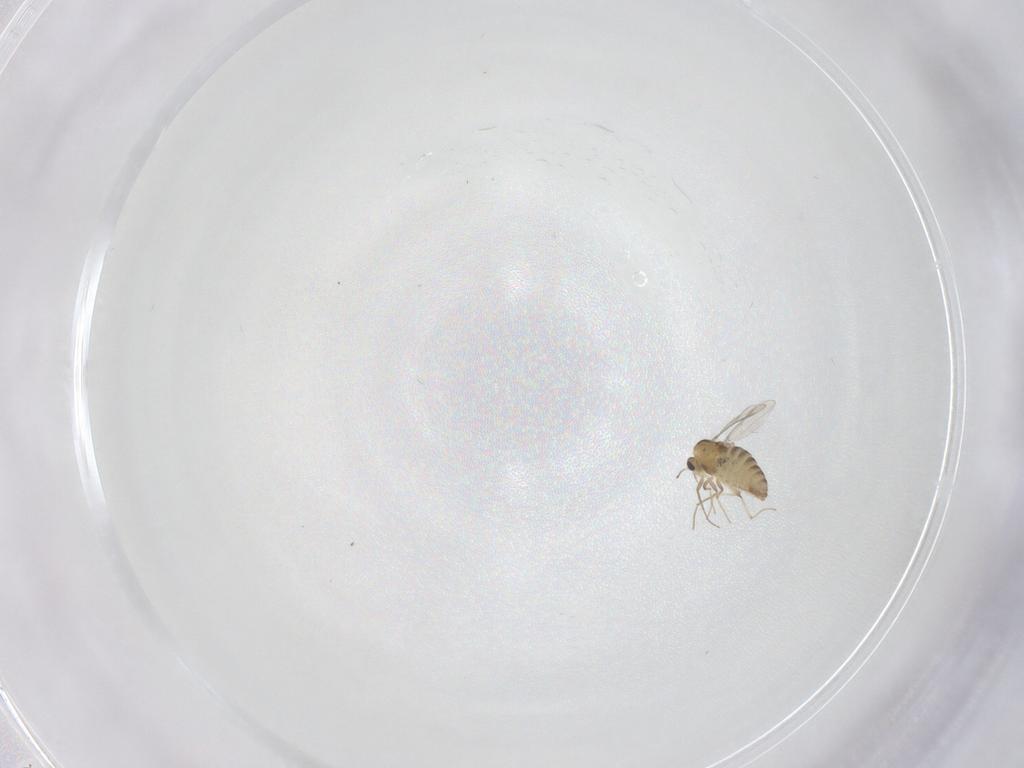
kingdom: Animalia
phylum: Arthropoda
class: Insecta
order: Diptera
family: Chironomidae
